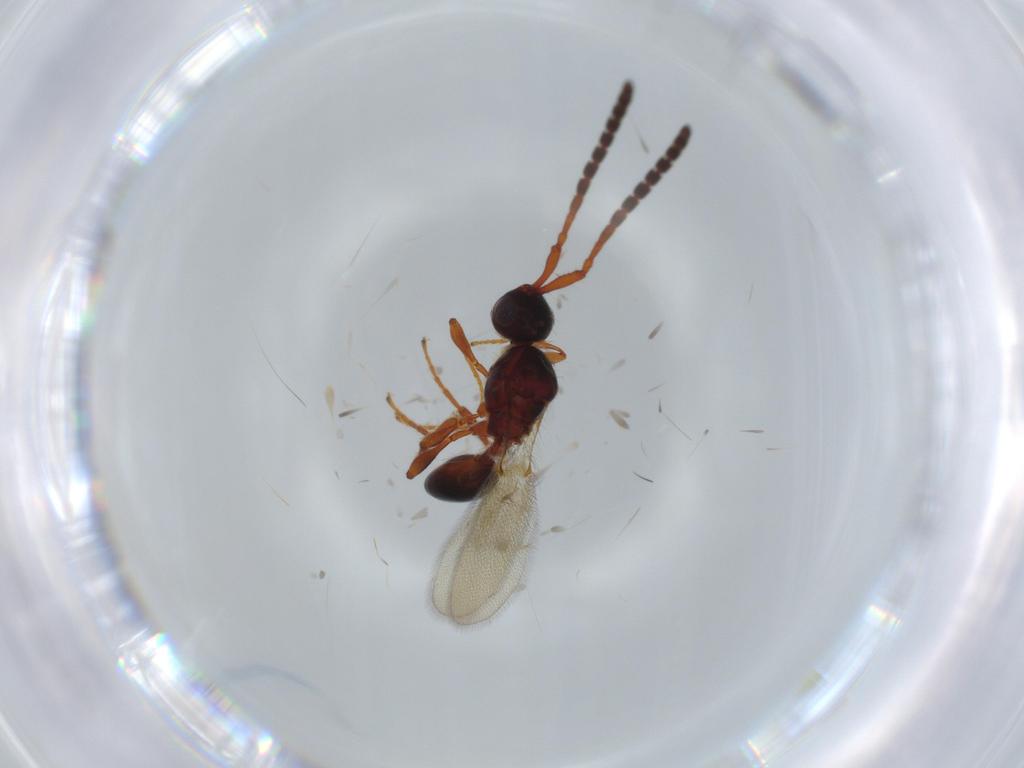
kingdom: Animalia
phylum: Arthropoda
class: Insecta
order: Hymenoptera
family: Diapriidae
